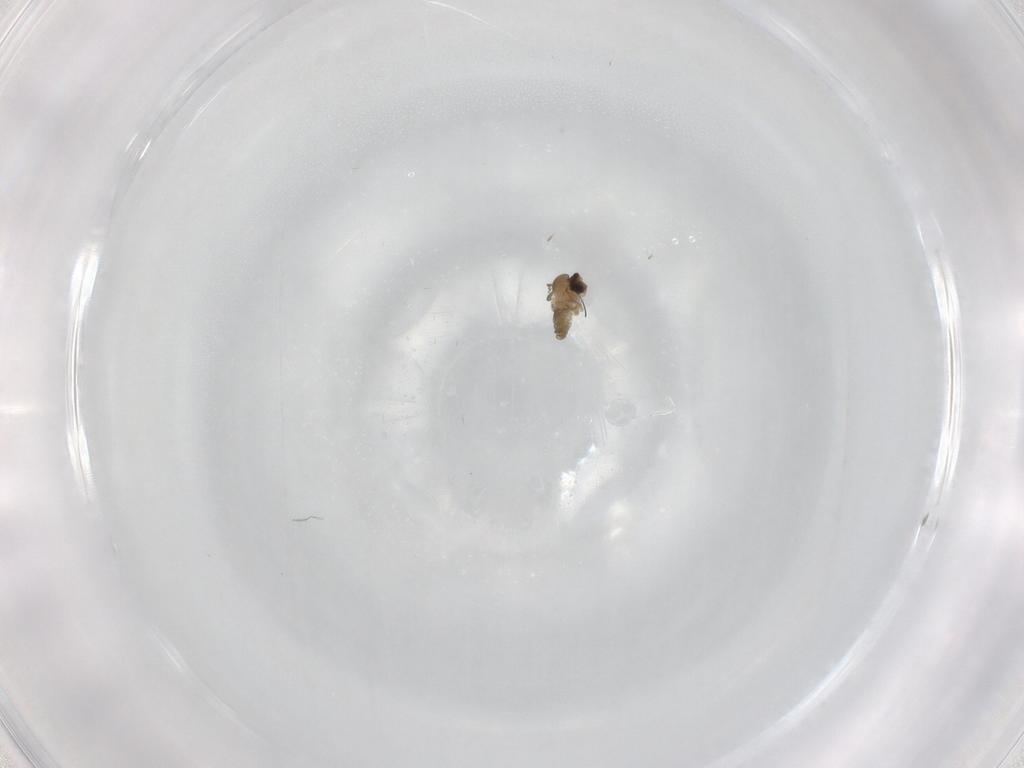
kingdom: Animalia
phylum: Arthropoda
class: Insecta
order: Diptera
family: Cecidomyiidae
